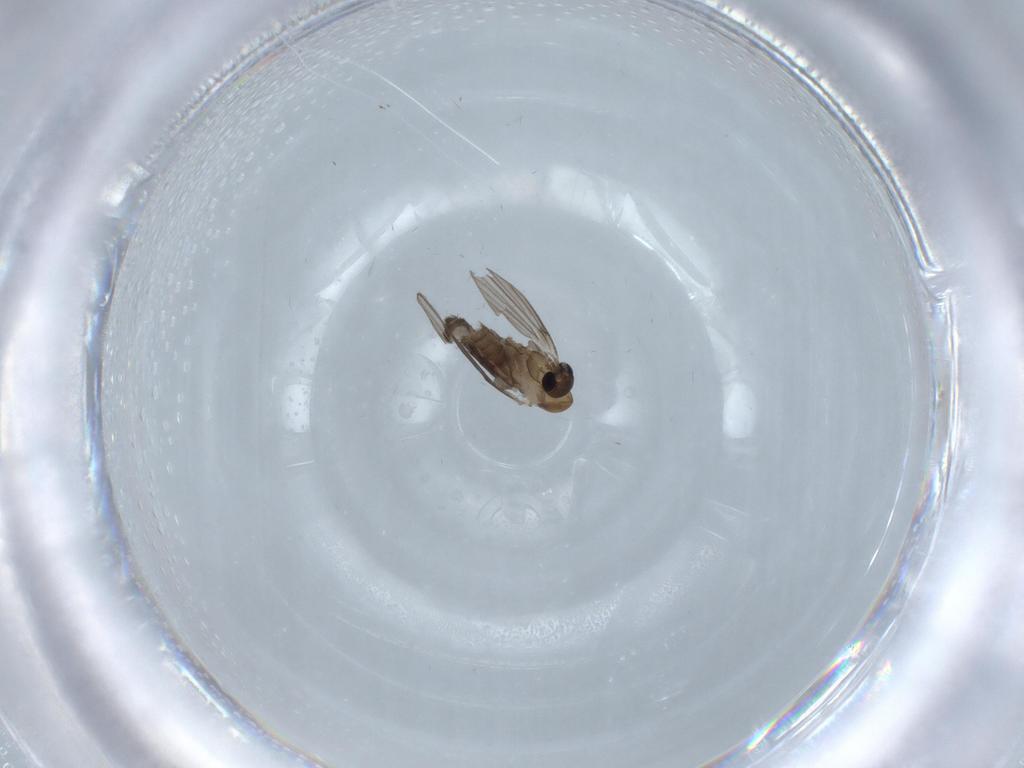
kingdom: Animalia
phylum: Arthropoda
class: Insecta
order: Diptera
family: Psychodidae
